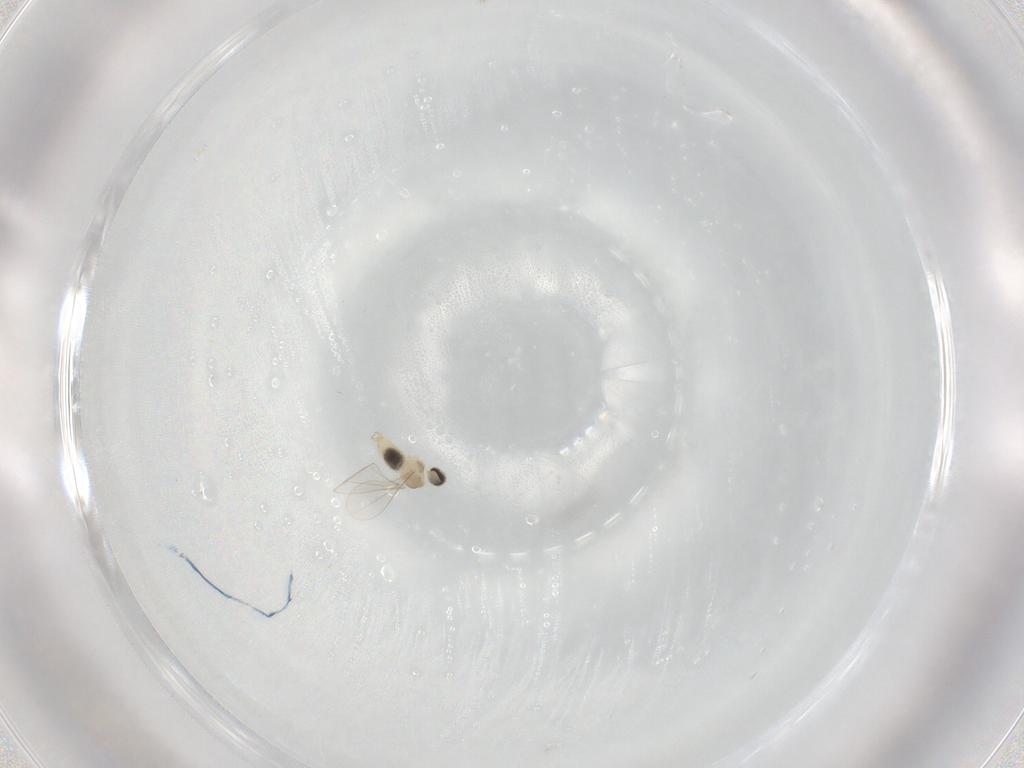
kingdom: Animalia
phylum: Arthropoda
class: Insecta
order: Diptera
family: Cecidomyiidae
